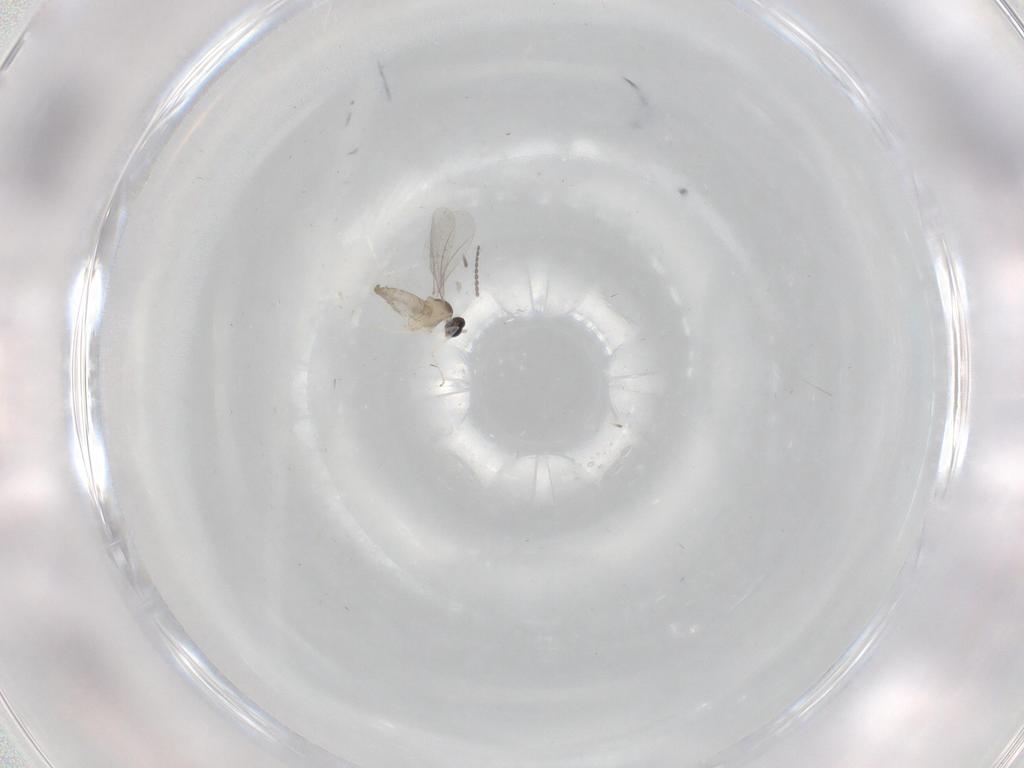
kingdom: Animalia
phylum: Arthropoda
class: Insecta
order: Diptera
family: Cecidomyiidae
